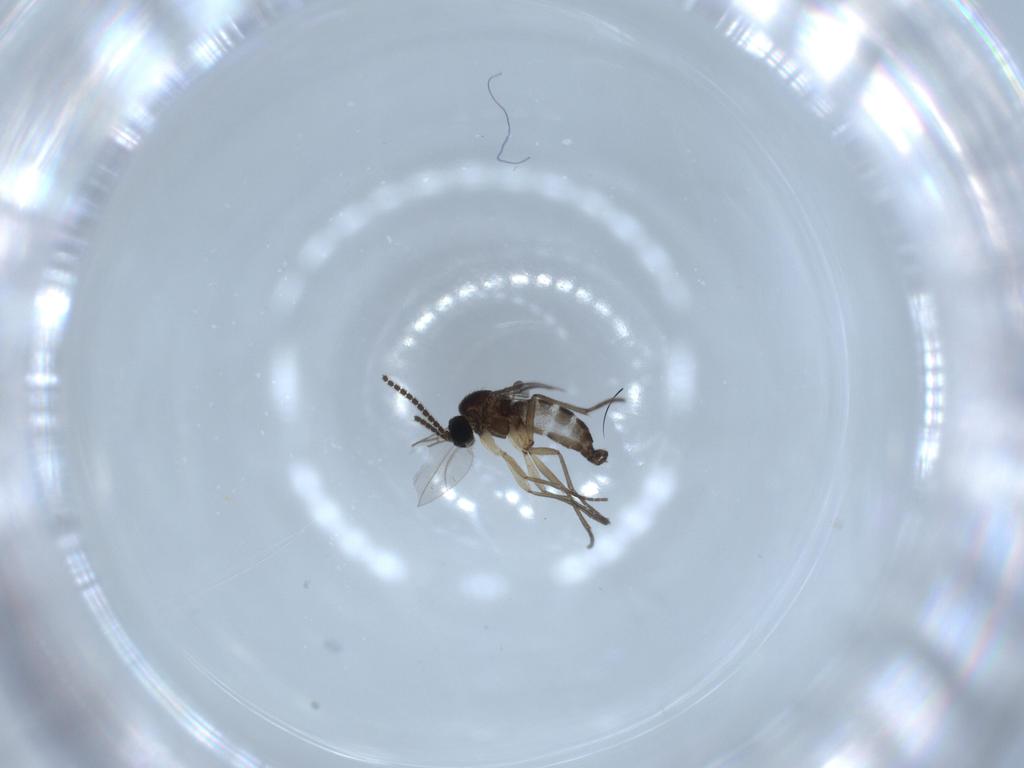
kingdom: Animalia
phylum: Arthropoda
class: Insecta
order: Diptera
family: Sciaridae
